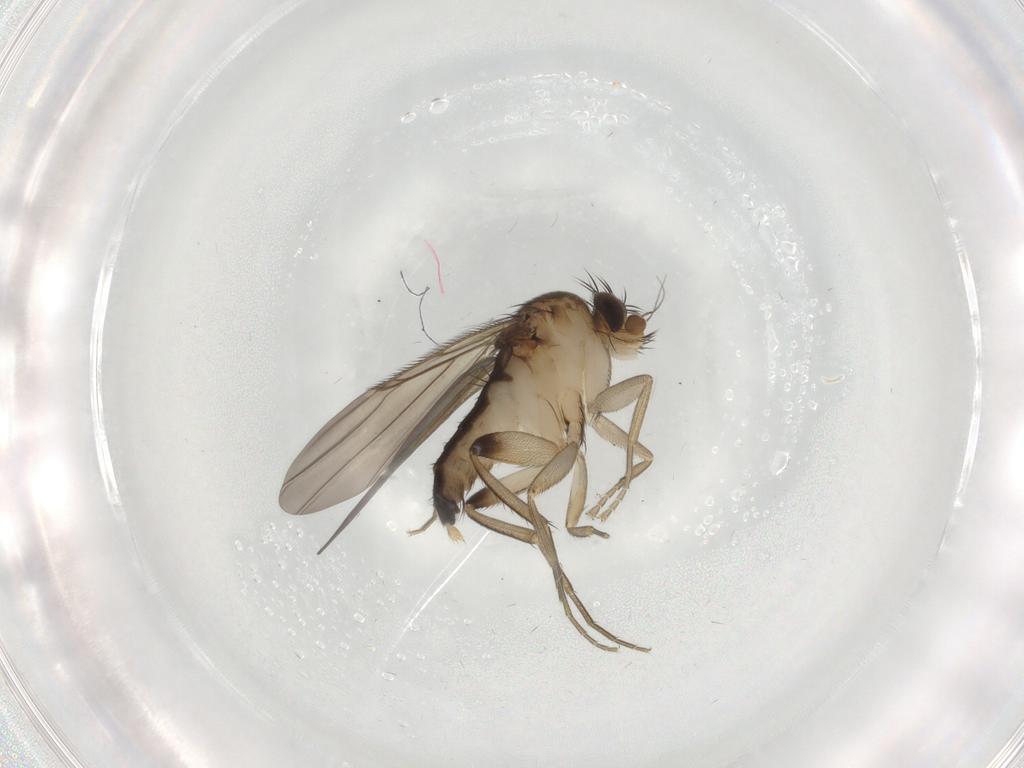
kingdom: Animalia
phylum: Arthropoda
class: Insecta
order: Diptera
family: Phoridae
